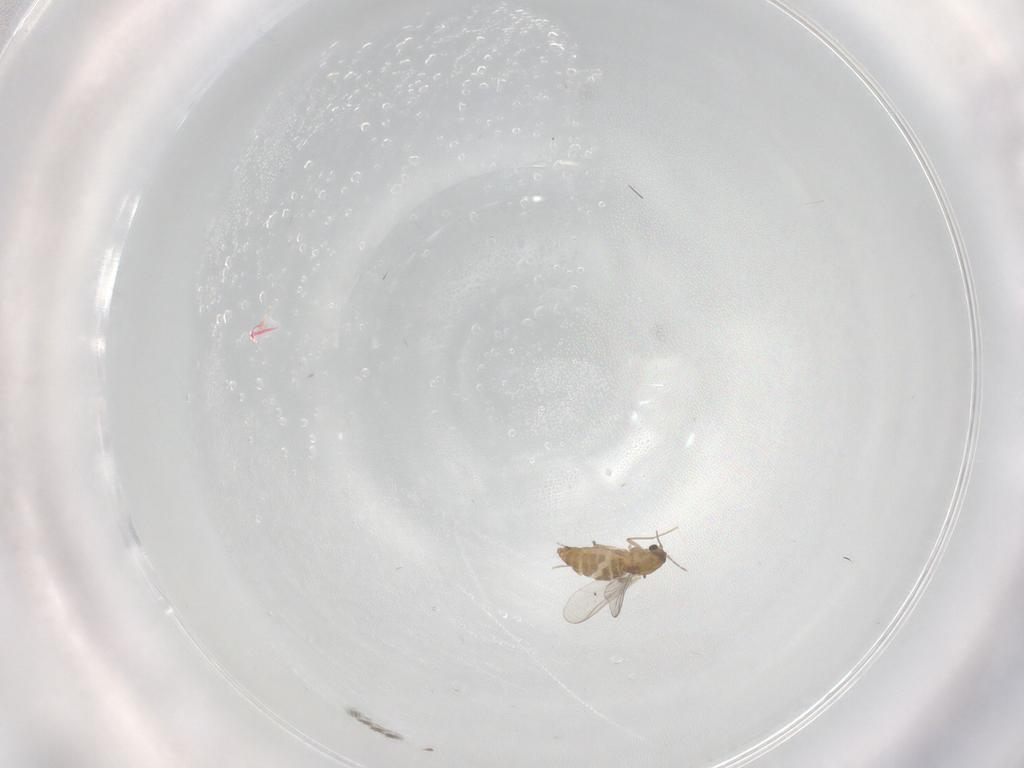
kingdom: Animalia
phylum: Arthropoda
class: Insecta
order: Diptera
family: Chironomidae
